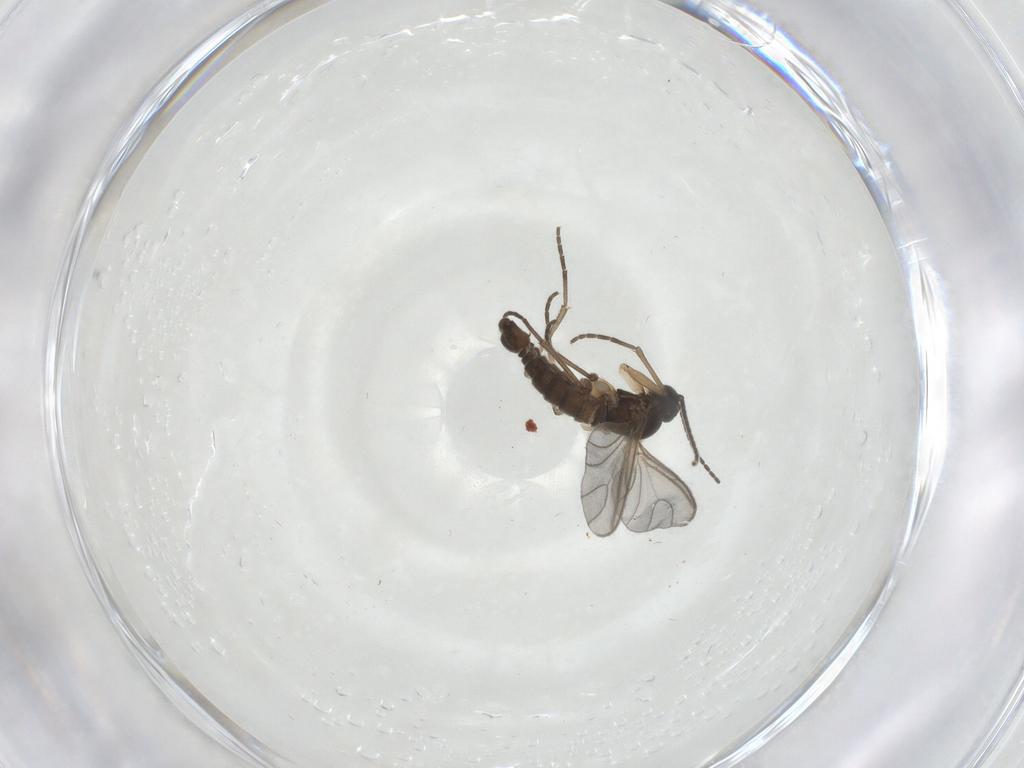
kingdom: Animalia
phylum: Arthropoda
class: Insecta
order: Diptera
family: Sciaridae
